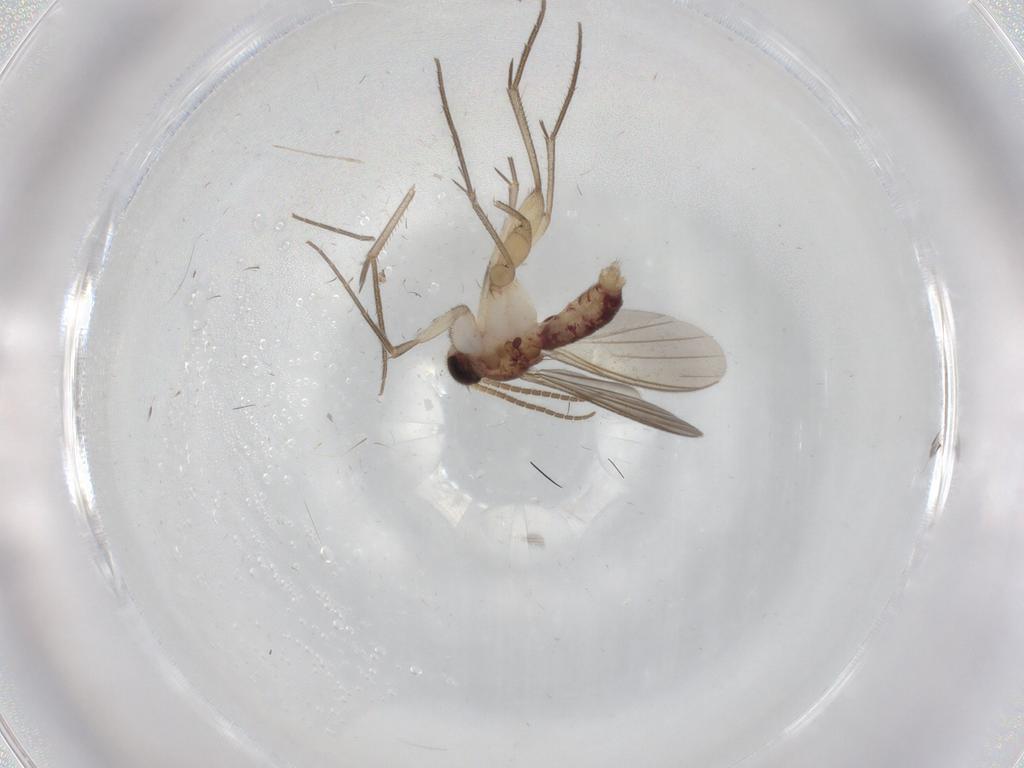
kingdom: Animalia
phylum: Arthropoda
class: Insecta
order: Diptera
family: Mycetophilidae
